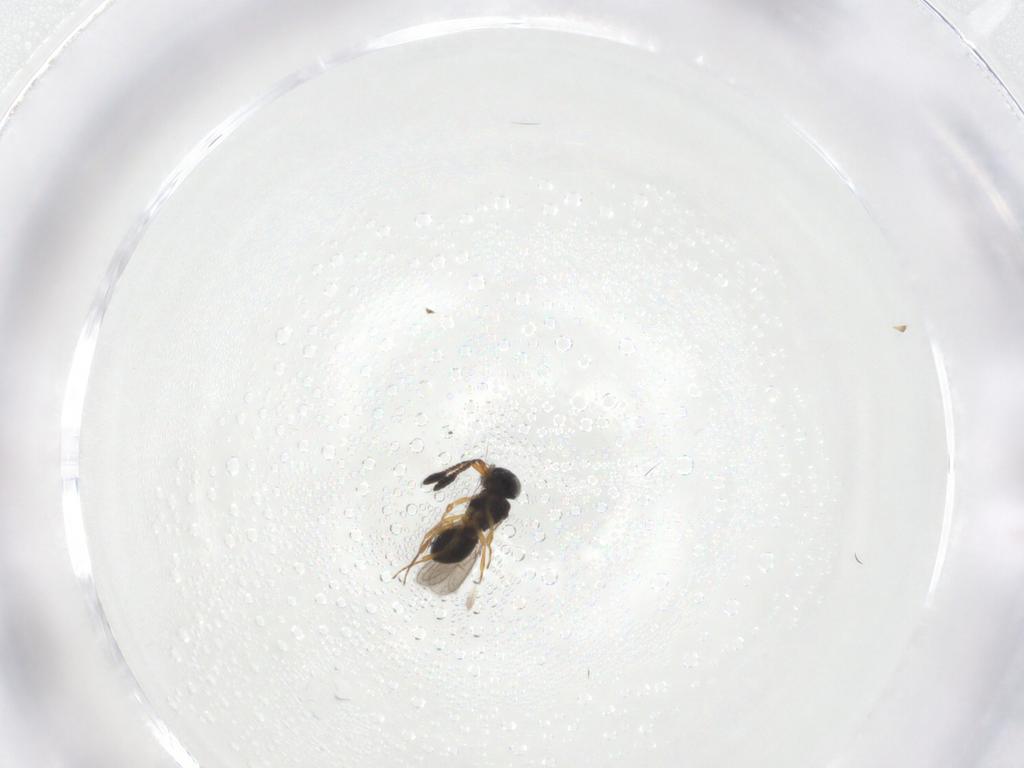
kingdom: Animalia
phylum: Arthropoda
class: Insecta
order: Hymenoptera
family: Scelionidae
